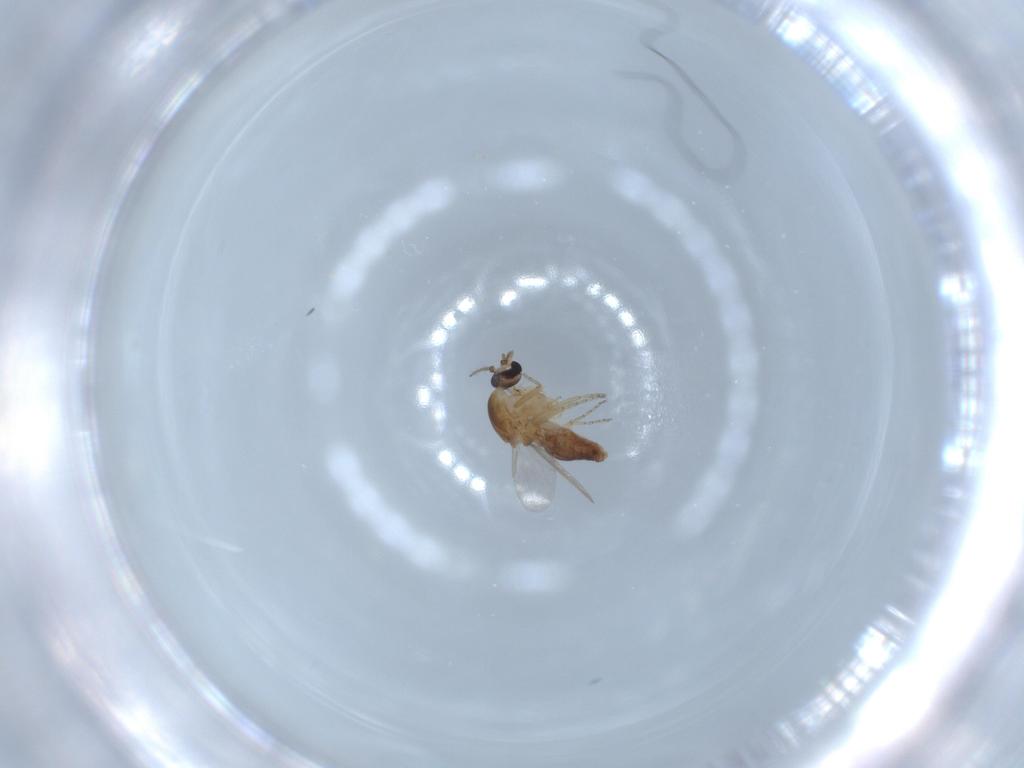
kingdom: Animalia
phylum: Arthropoda
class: Insecta
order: Diptera
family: Ceratopogonidae
